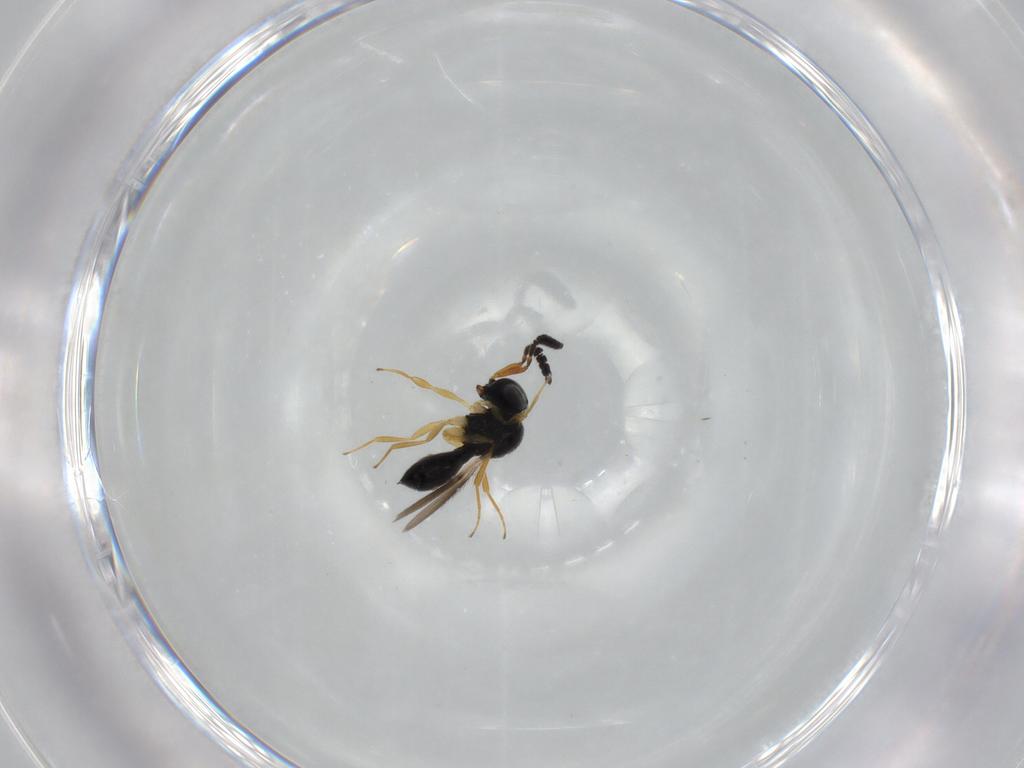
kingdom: Animalia
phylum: Arthropoda
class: Insecta
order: Hymenoptera
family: Scelionidae
